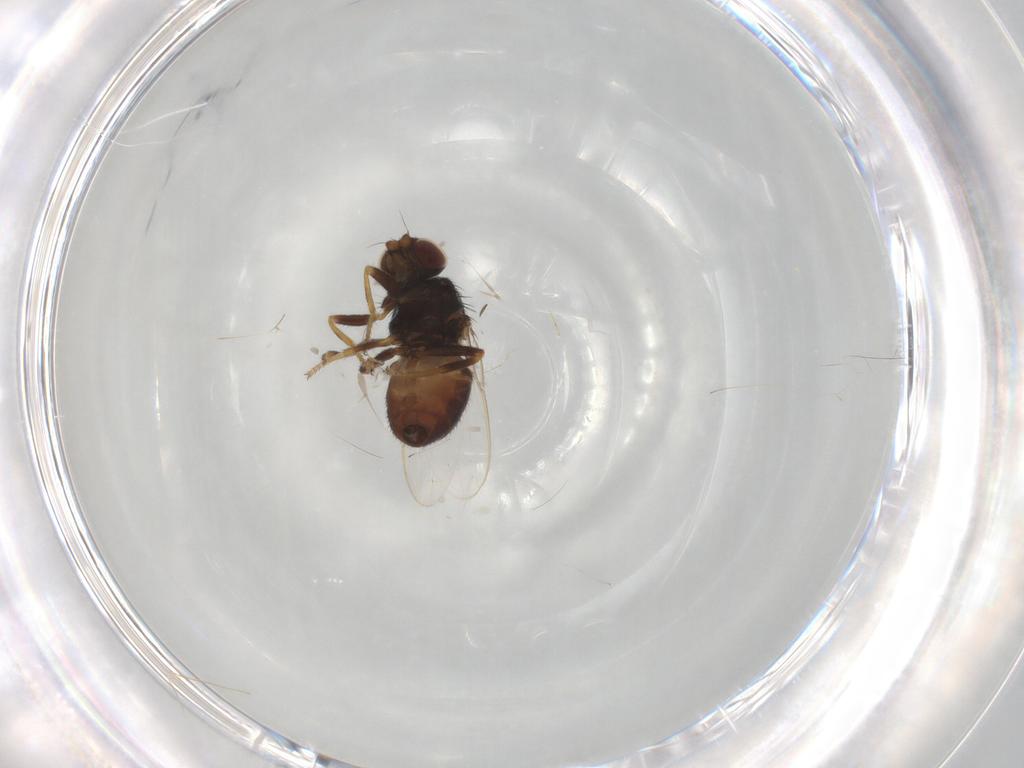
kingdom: Animalia
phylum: Arthropoda
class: Insecta
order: Diptera
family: Chloropidae
